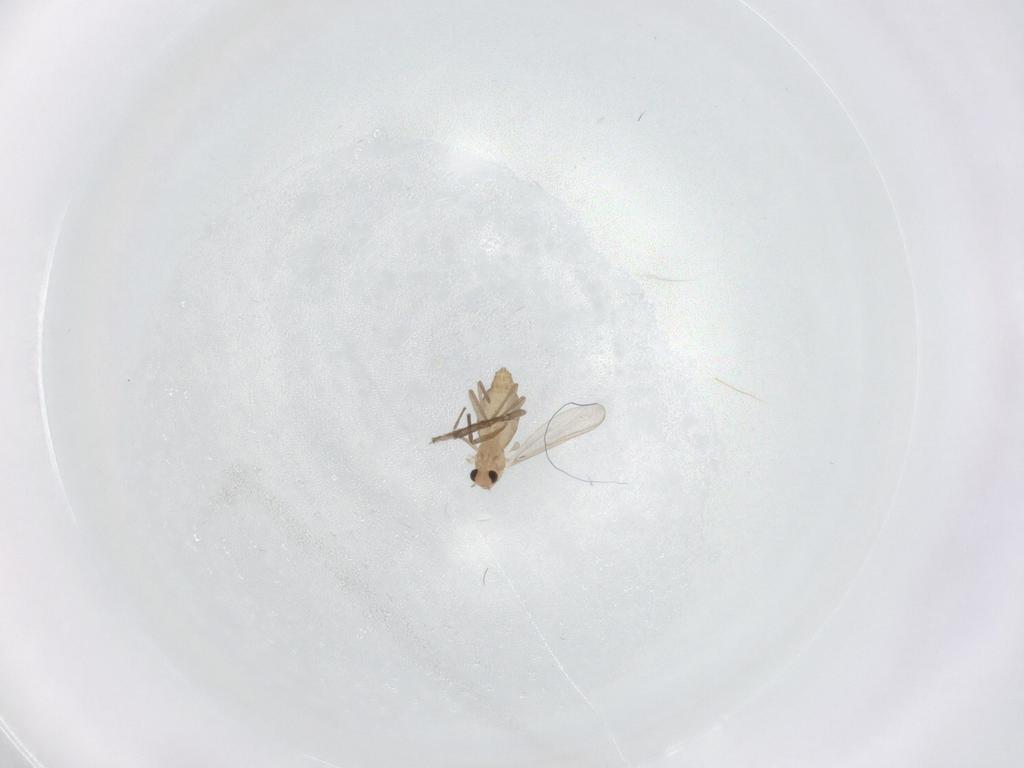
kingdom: Animalia
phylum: Arthropoda
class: Insecta
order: Diptera
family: Chironomidae
